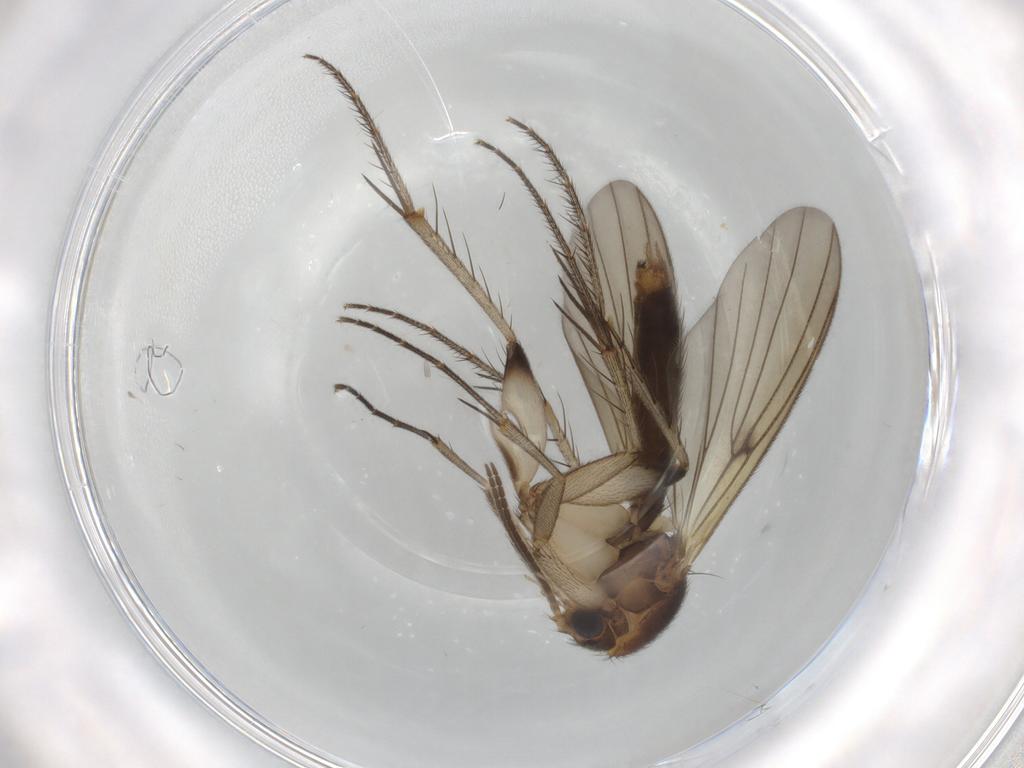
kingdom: Animalia
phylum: Arthropoda
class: Insecta
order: Diptera
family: Mycetophilidae
